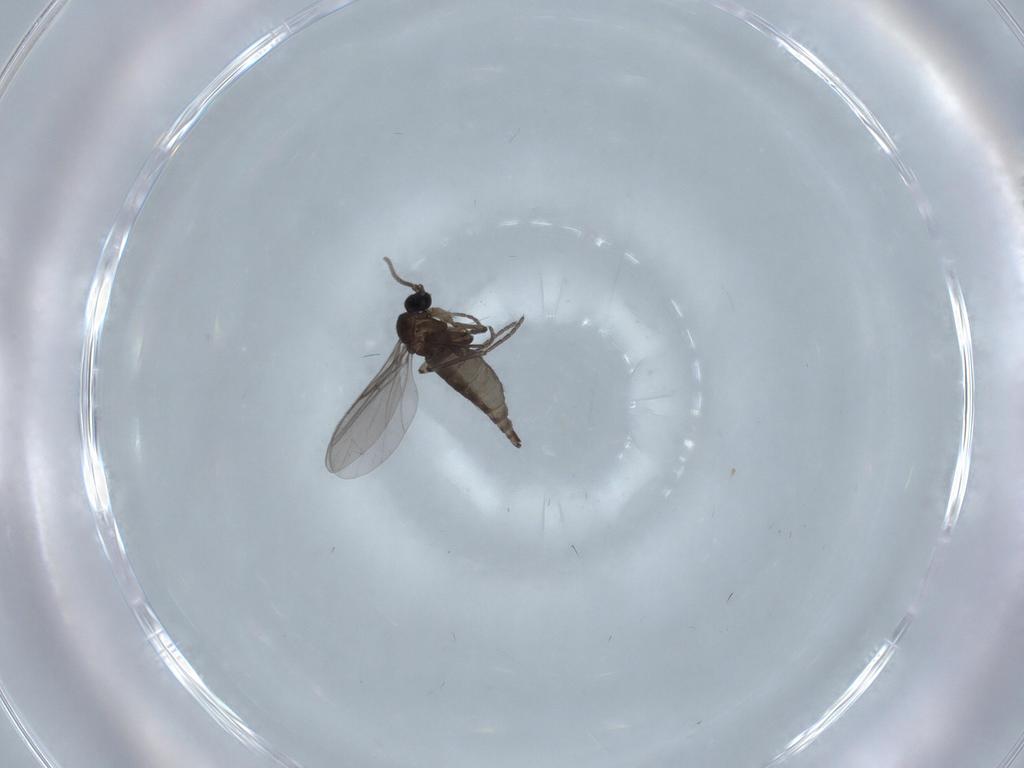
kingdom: Animalia
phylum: Arthropoda
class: Insecta
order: Diptera
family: Ceratopogonidae
